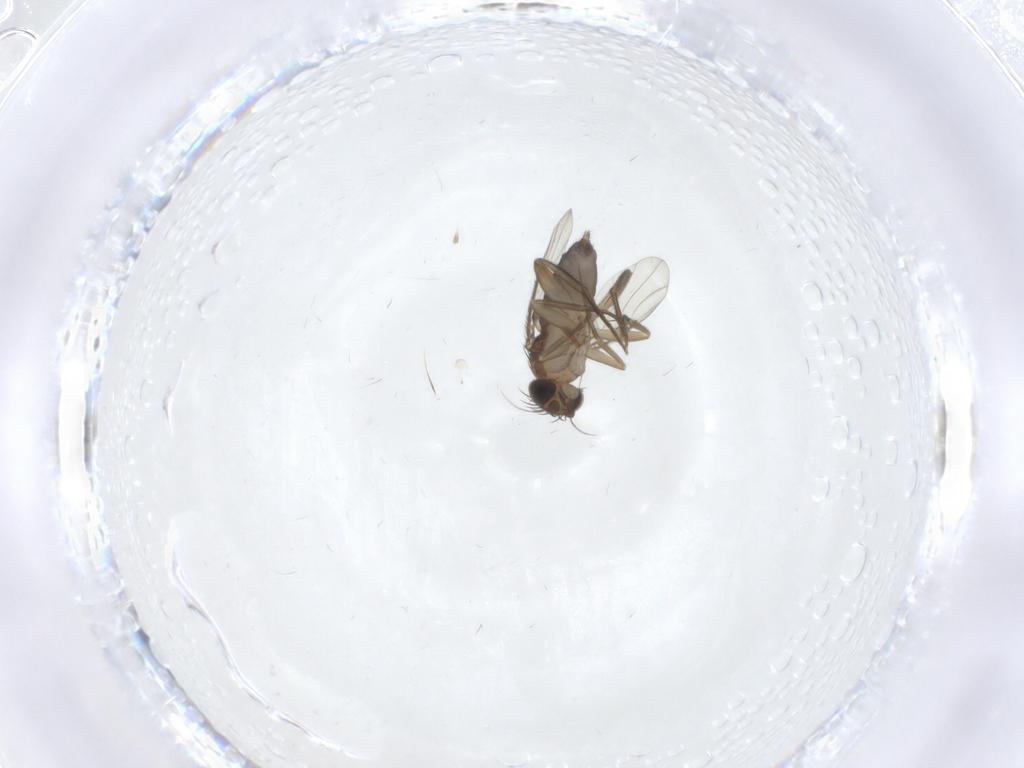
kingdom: Animalia
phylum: Arthropoda
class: Insecta
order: Diptera
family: Phoridae
